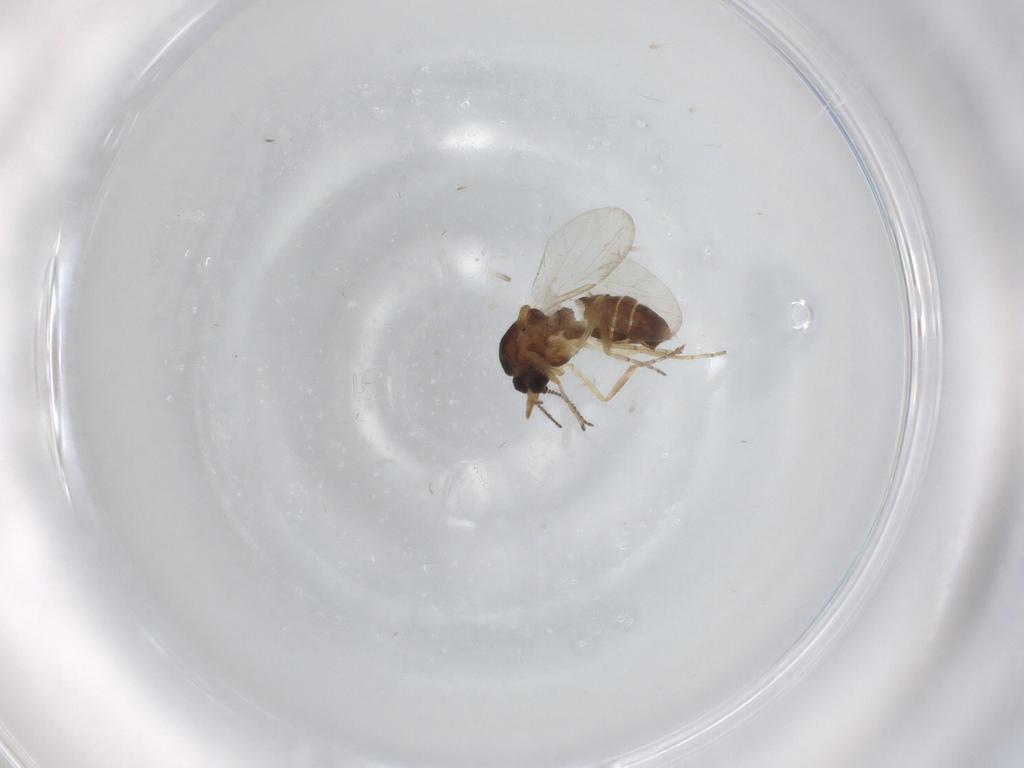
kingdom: Animalia
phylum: Arthropoda
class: Insecta
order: Diptera
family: Ceratopogonidae
